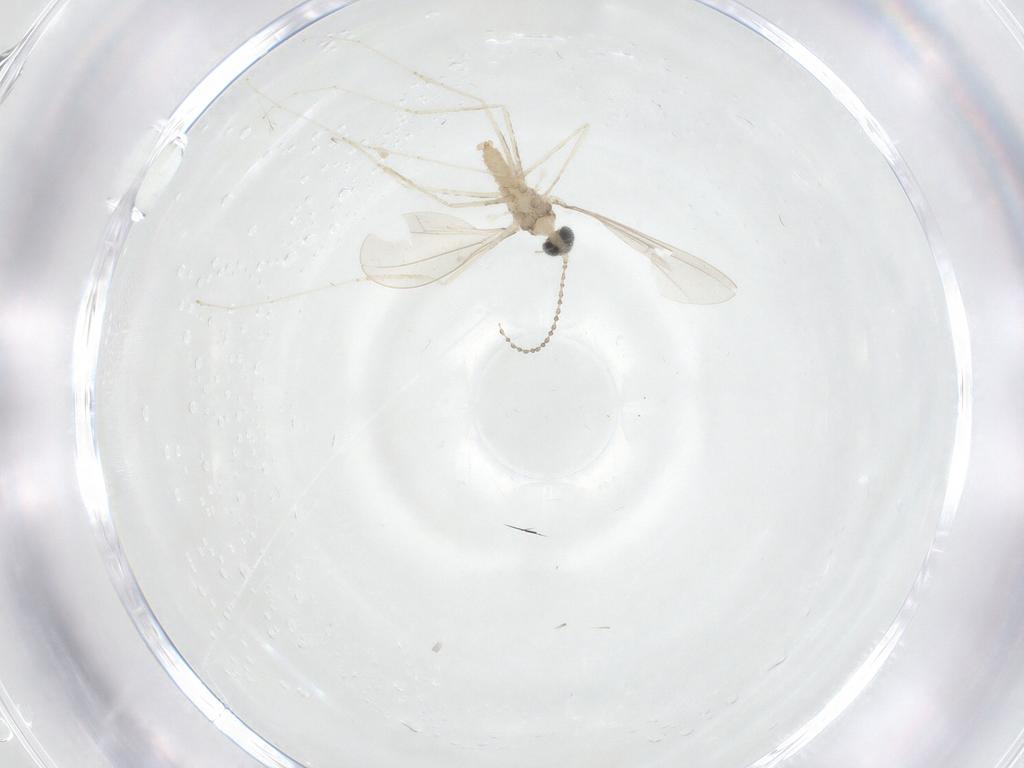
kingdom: Animalia
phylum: Arthropoda
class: Insecta
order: Diptera
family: Cecidomyiidae
